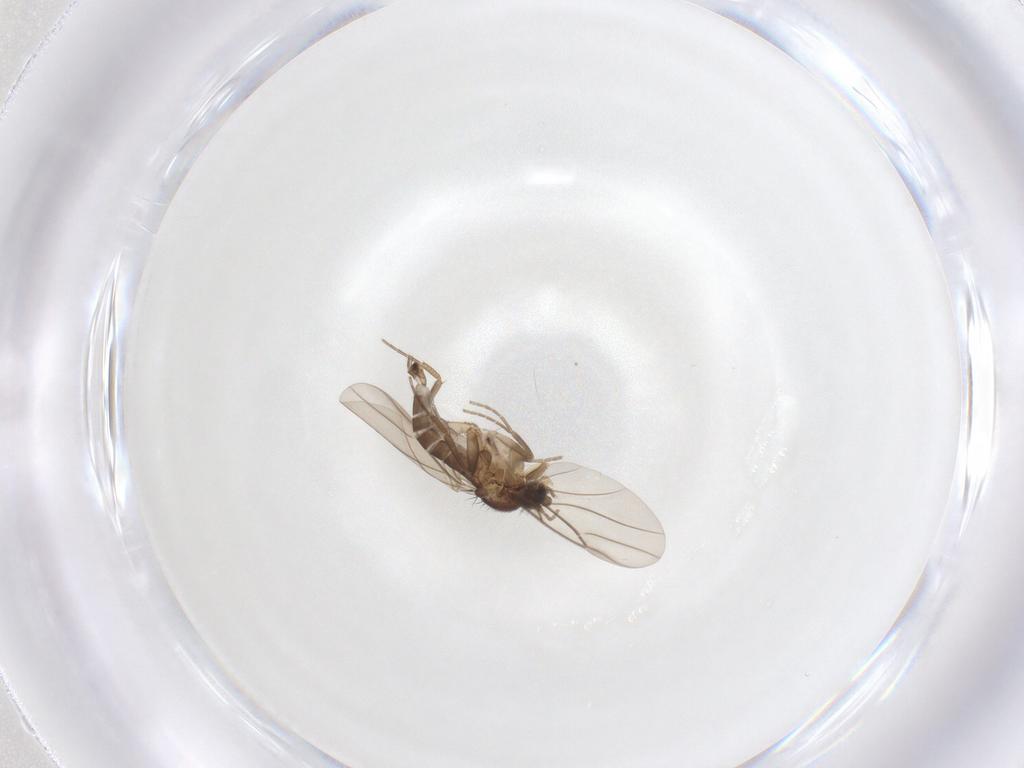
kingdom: Animalia
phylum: Arthropoda
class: Insecta
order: Diptera
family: Phoridae
